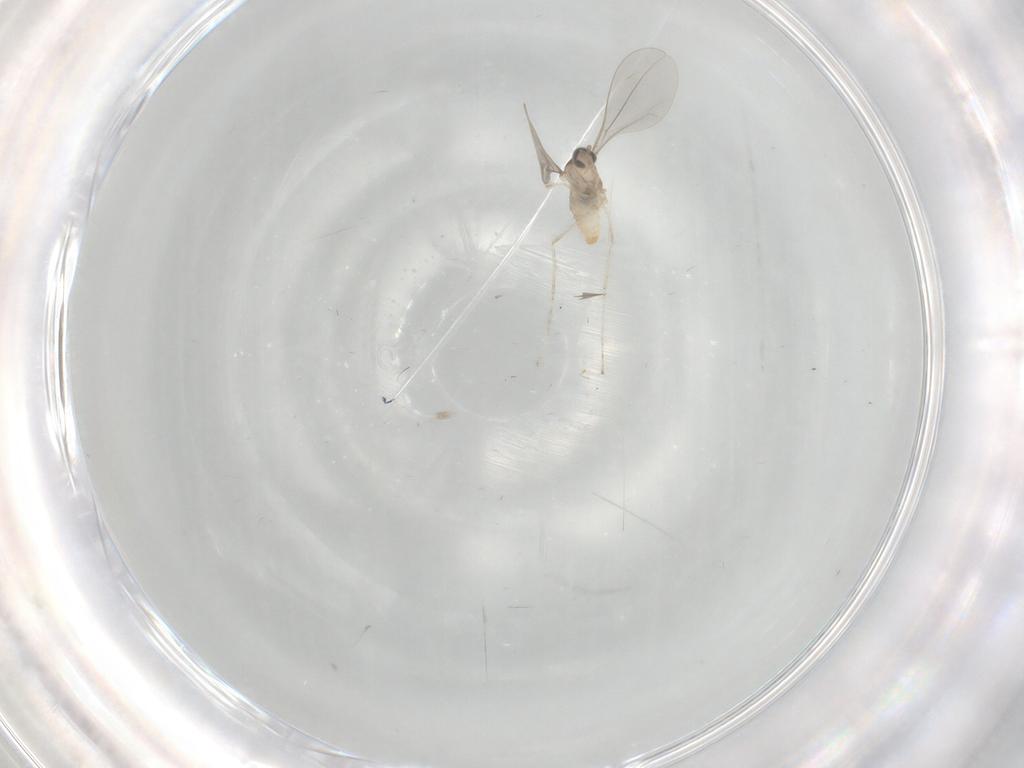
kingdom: Animalia
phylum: Arthropoda
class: Insecta
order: Diptera
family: Cecidomyiidae
